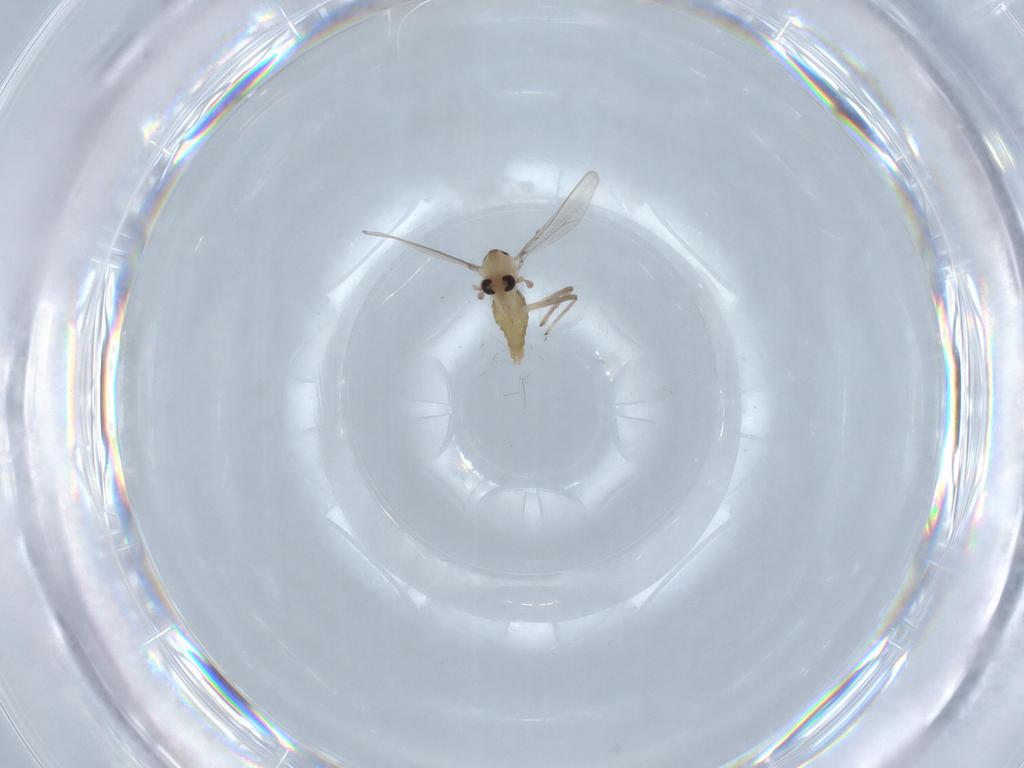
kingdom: Animalia
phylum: Arthropoda
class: Insecta
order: Diptera
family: Chironomidae
